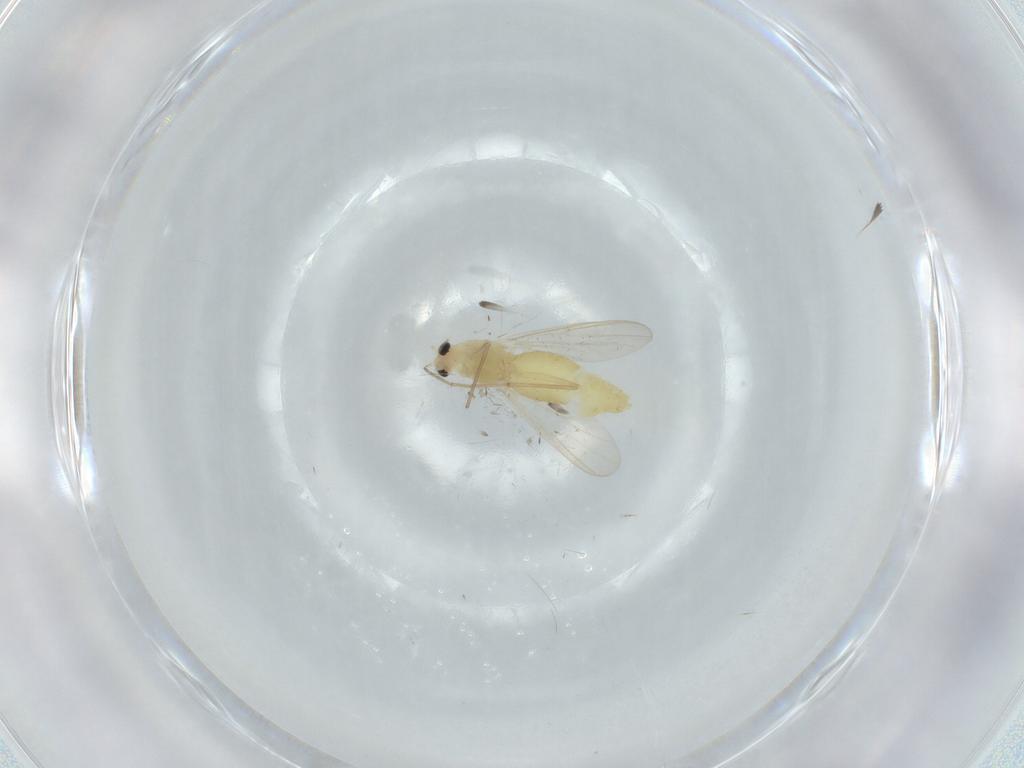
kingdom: Animalia
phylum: Arthropoda
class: Insecta
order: Diptera
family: Chironomidae
